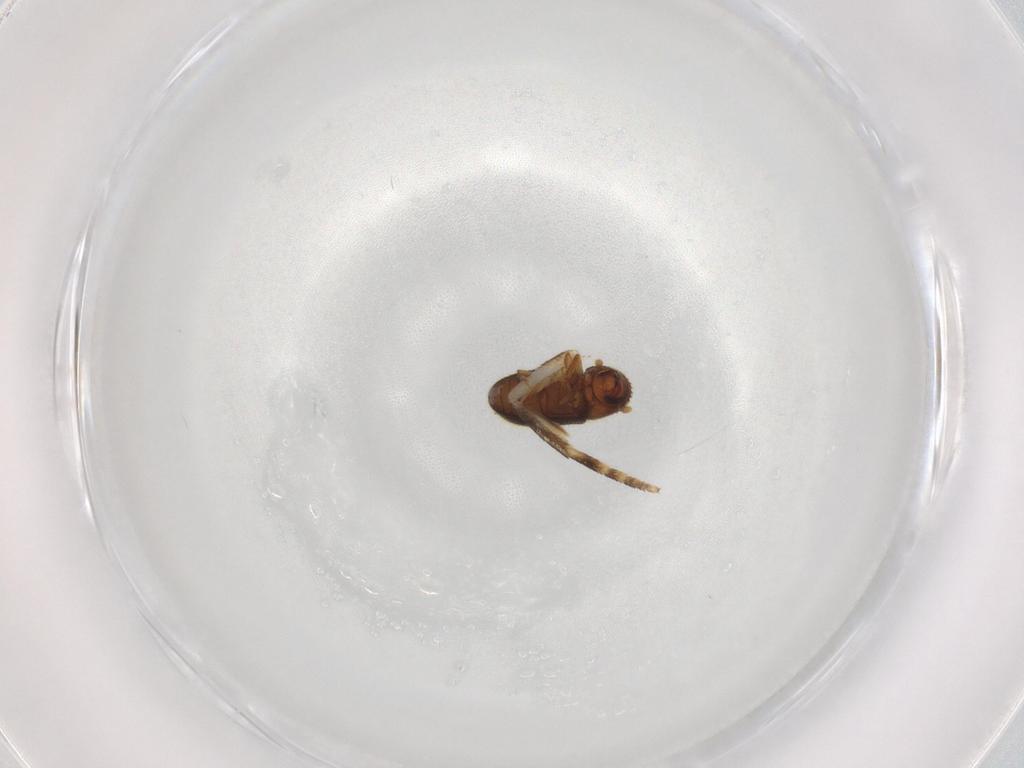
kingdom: Animalia
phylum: Arthropoda
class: Insecta
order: Coleoptera
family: Curculionidae
